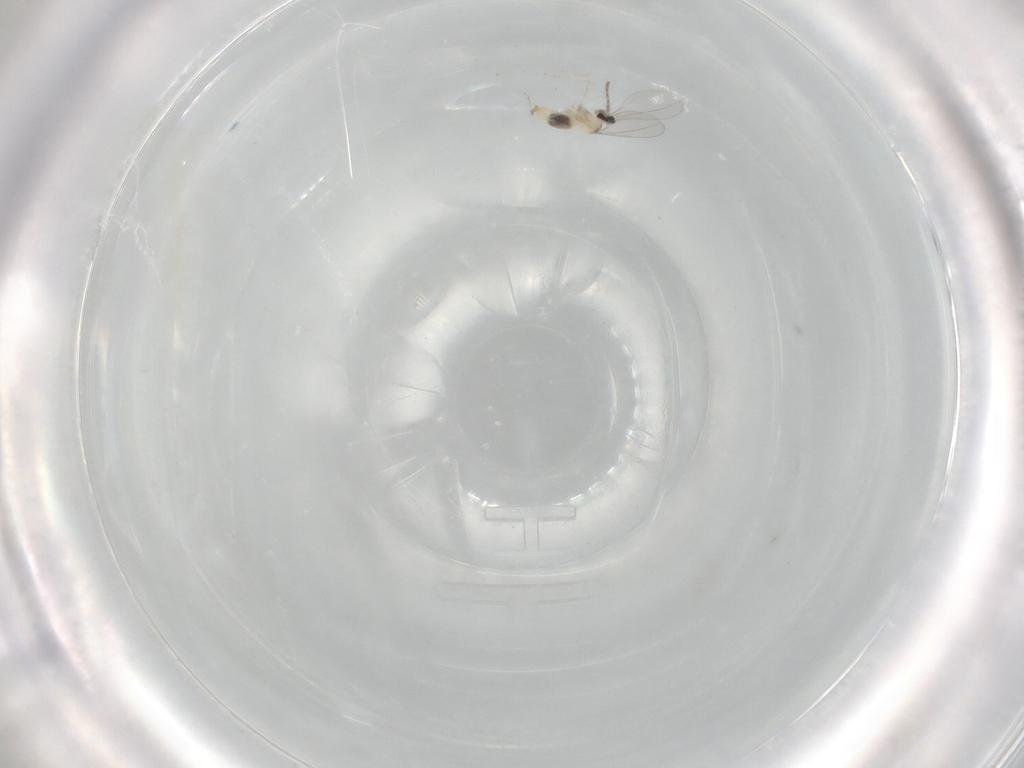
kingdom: Animalia
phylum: Arthropoda
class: Insecta
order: Diptera
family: Cecidomyiidae
